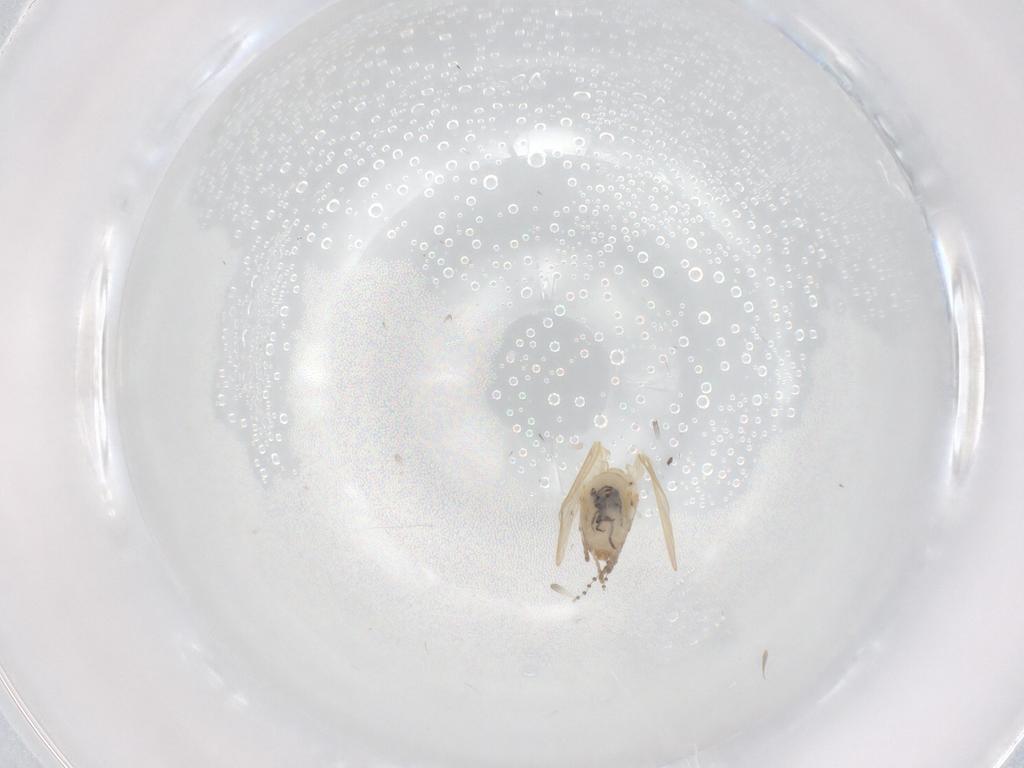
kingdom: Animalia
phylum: Arthropoda
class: Insecta
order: Diptera
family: Psychodidae
